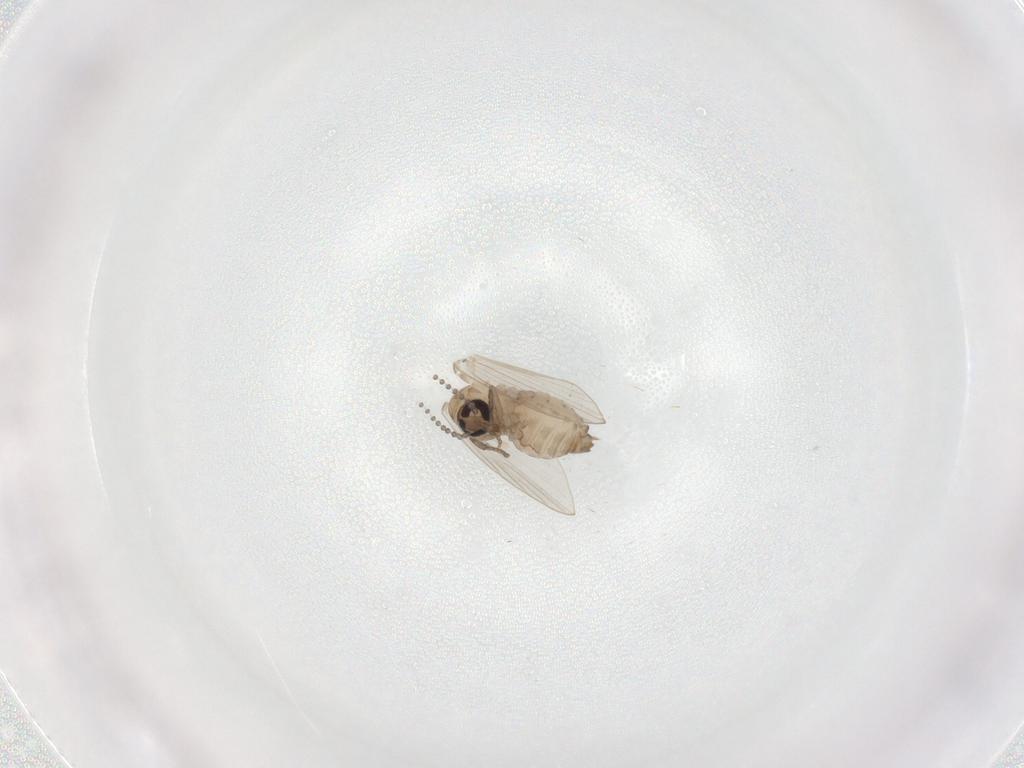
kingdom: Animalia
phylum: Arthropoda
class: Insecta
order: Diptera
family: Psychodidae
